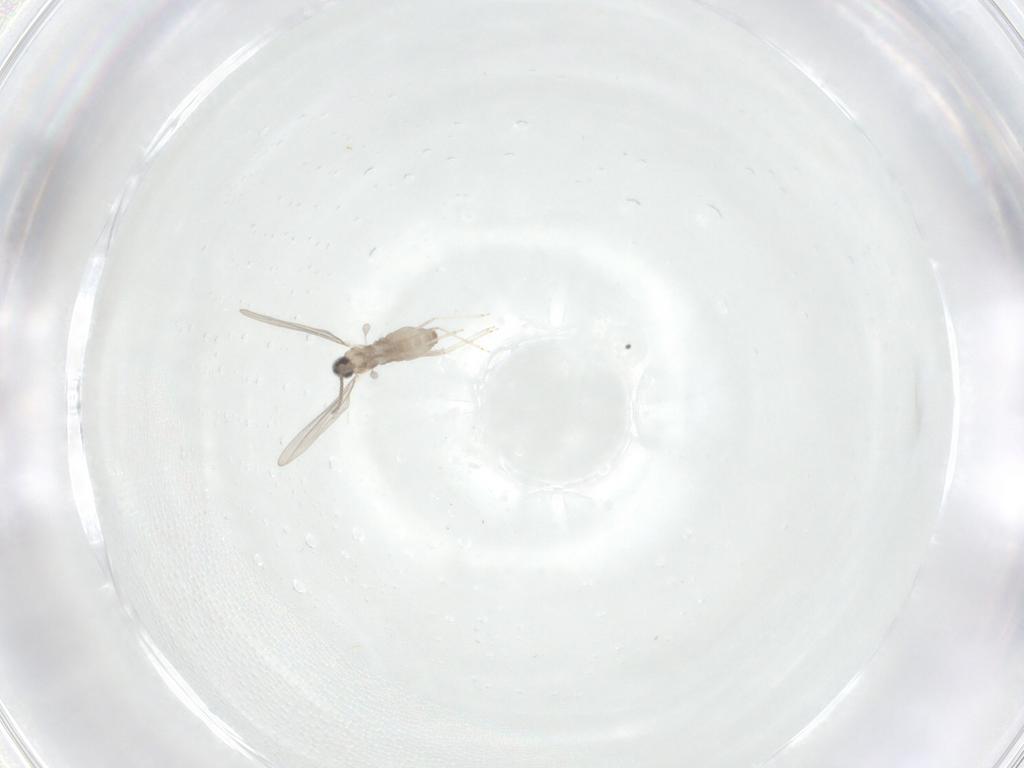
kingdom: Animalia
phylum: Arthropoda
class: Insecta
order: Diptera
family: Cecidomyiidae
